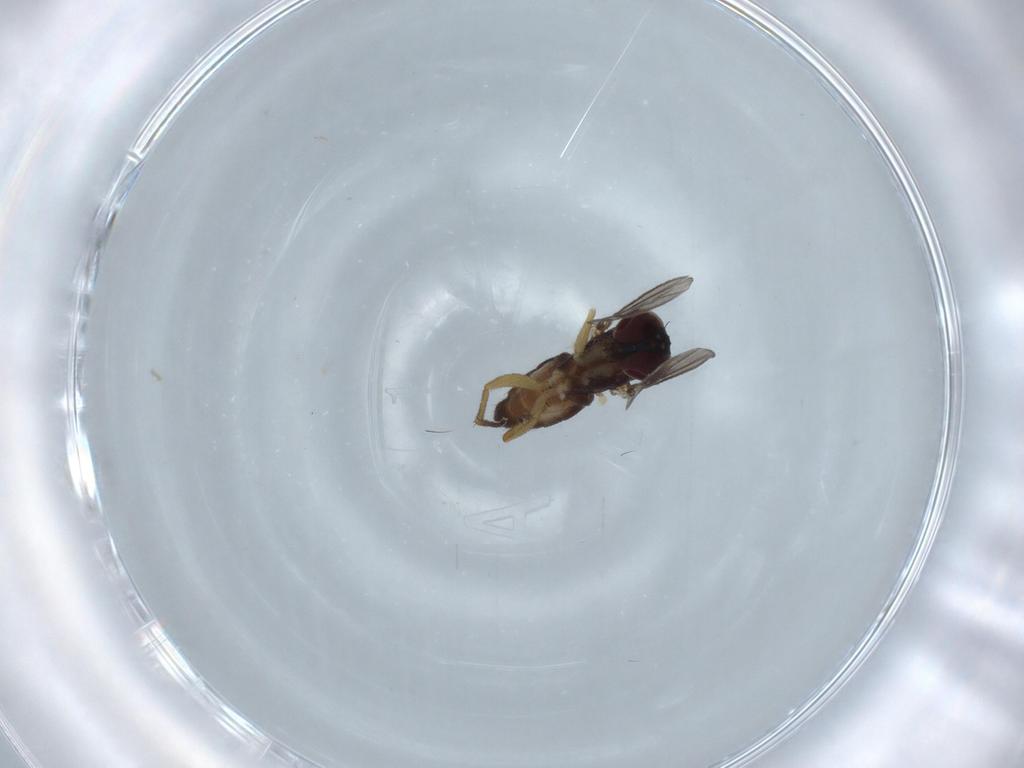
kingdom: Animalia
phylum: Arthropoda
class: Insecta
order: Diptera
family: Dolichopodidae
